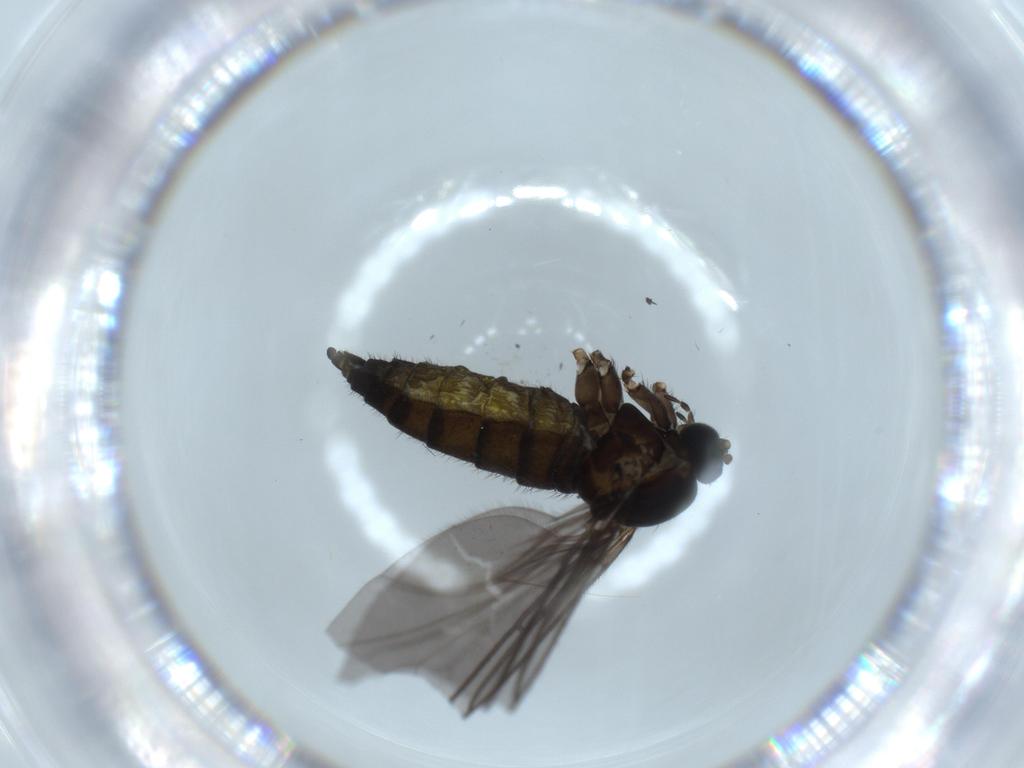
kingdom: Animalia
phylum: Arthropoda
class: Insecta
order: Diptera
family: Sciaridae
